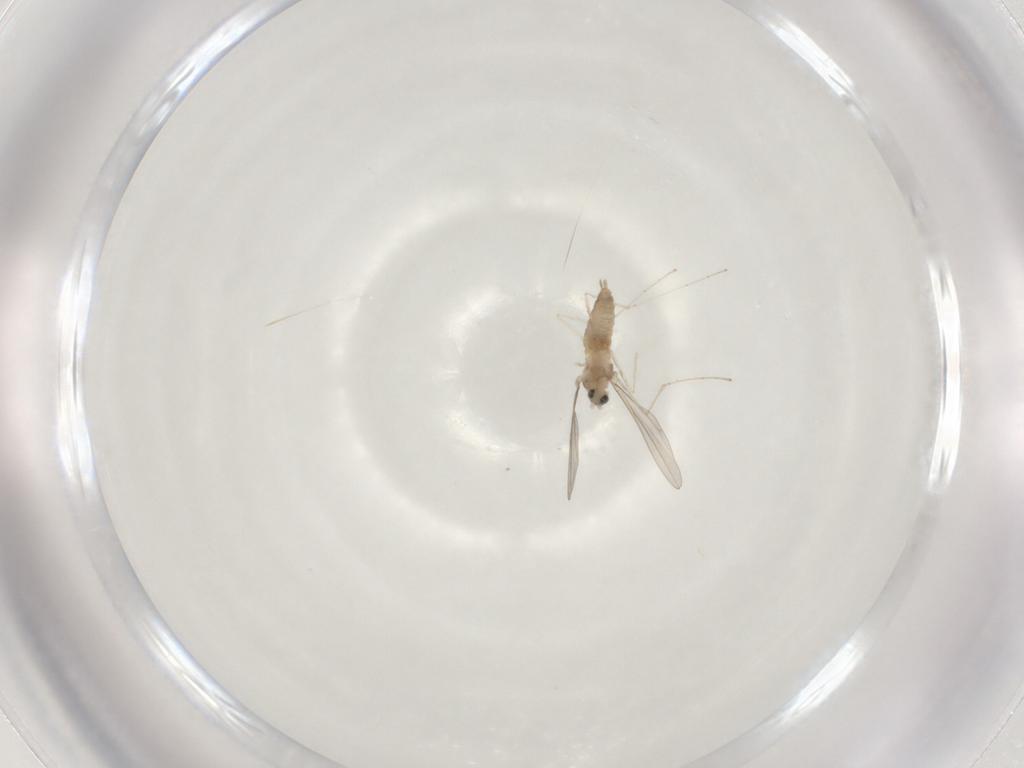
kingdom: Animalia
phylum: Arthropoda
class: Insecta
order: Diptera
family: Cecidomyiidae
